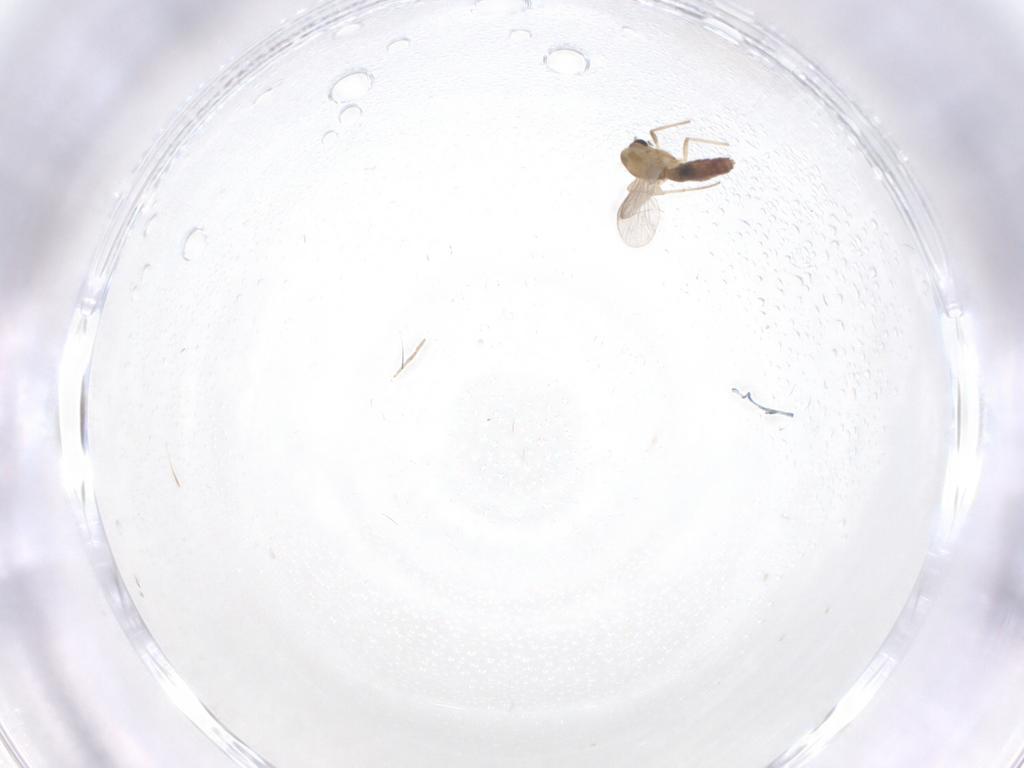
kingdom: Animalia
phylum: Arthropoda
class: Insecta
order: Diptera
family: Chironomidae
